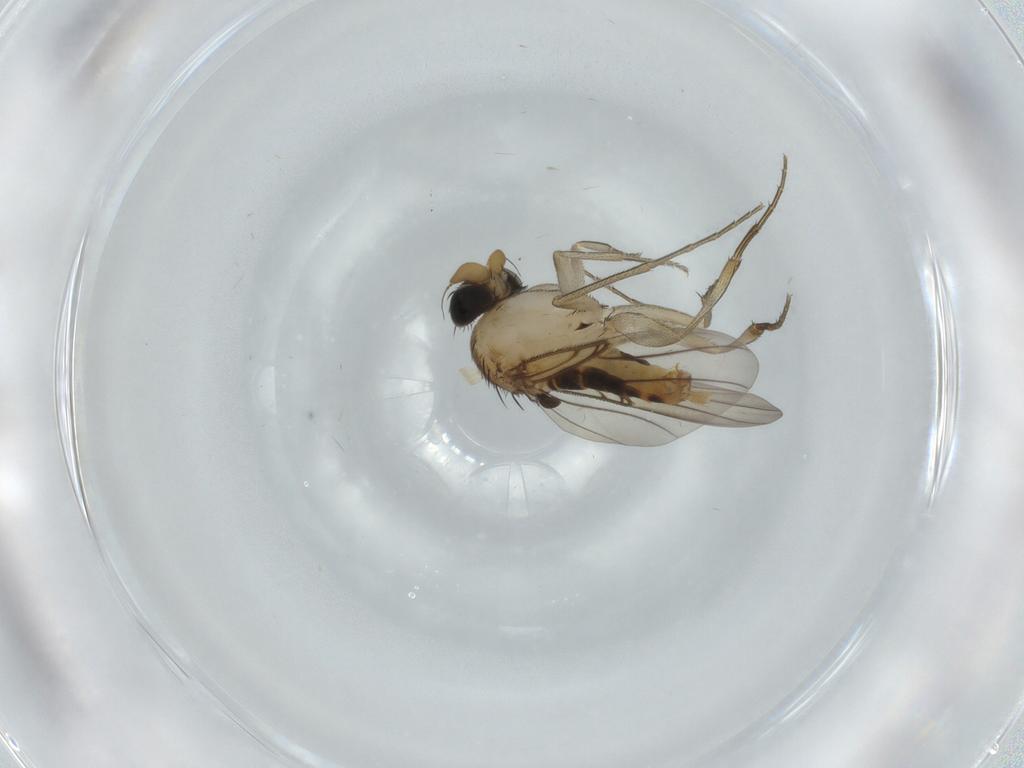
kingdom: Animalia
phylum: Arthropoda
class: Insecta
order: Diptera
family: Phoridae
